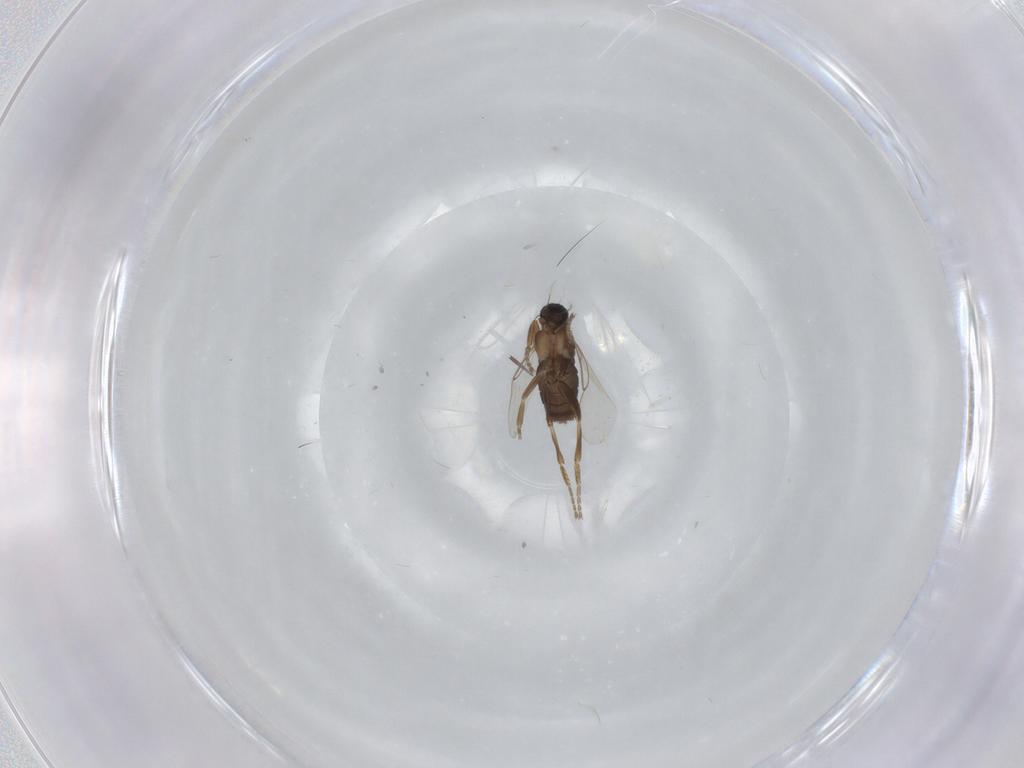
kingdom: Animalia
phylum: Arthropoda
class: Insecta
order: Diptera
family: Phoridae
